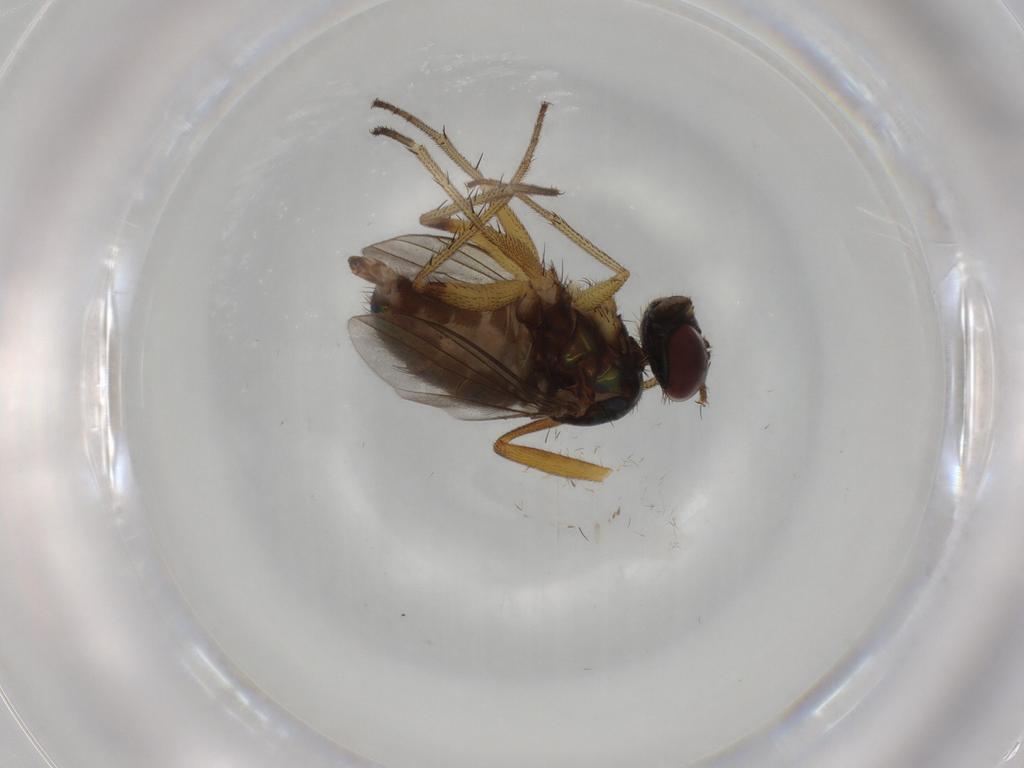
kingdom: Animalia
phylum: Arthropoda
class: Insecta
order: Diptera
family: Dolichopodidae
